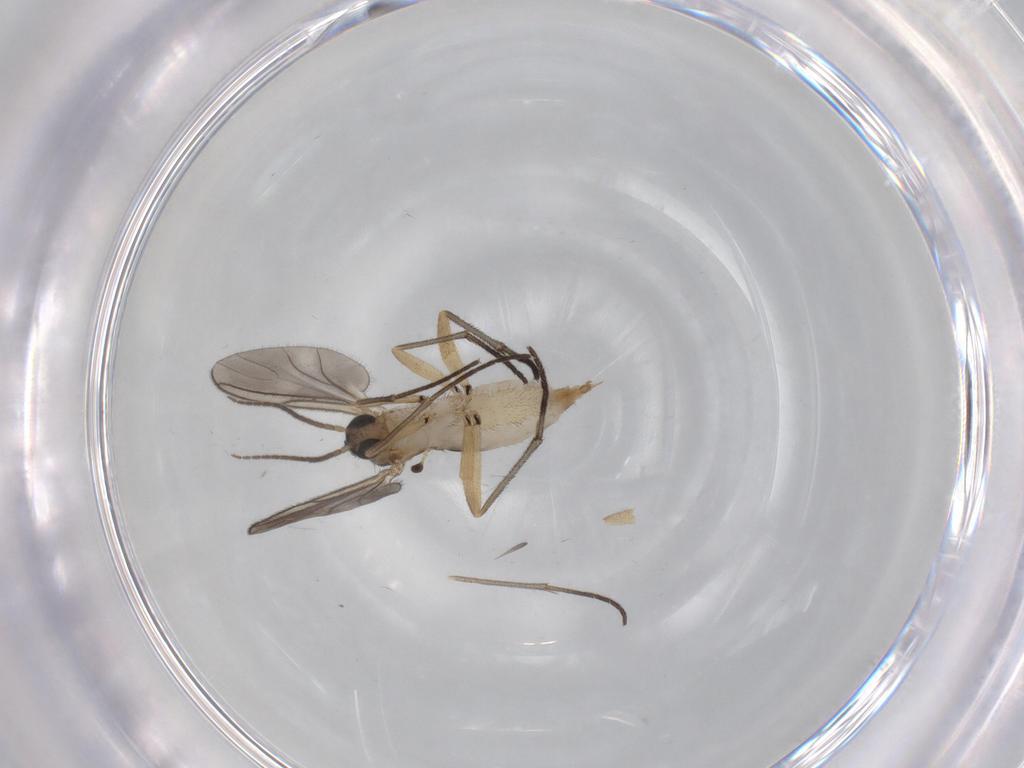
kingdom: Animalia
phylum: Arthropoda
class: Insecta
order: Diptera
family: Sciaridae
